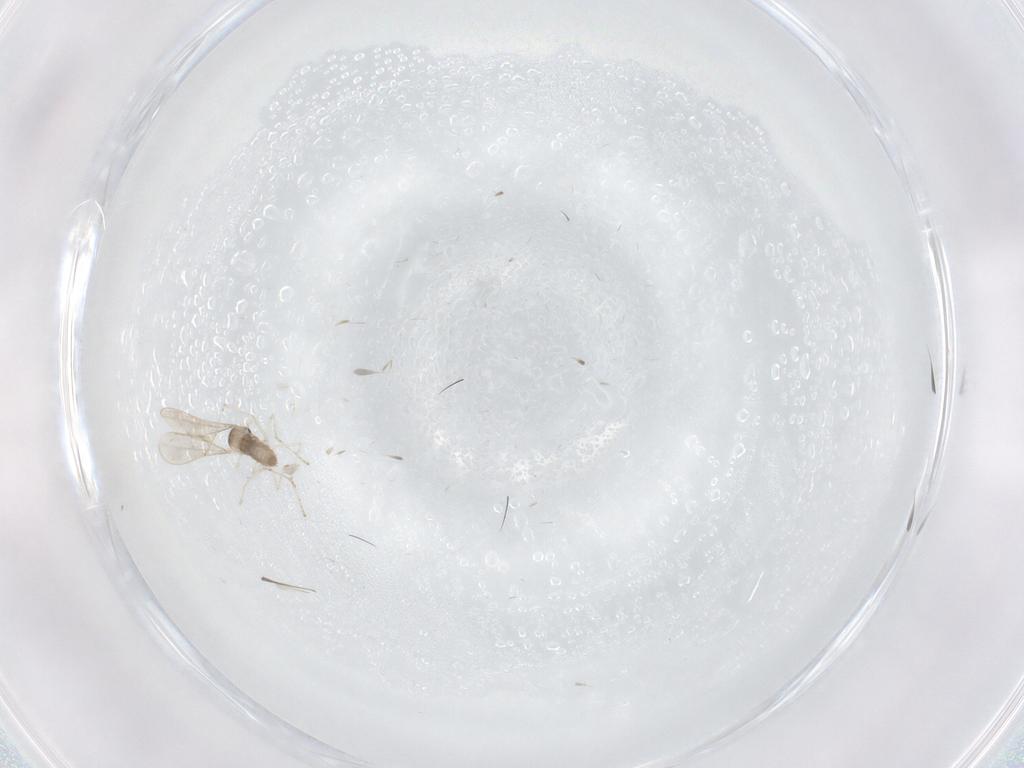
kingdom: Animalia
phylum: Arthropoda
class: Insecta
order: Diptera
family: Cecidomyiidae
